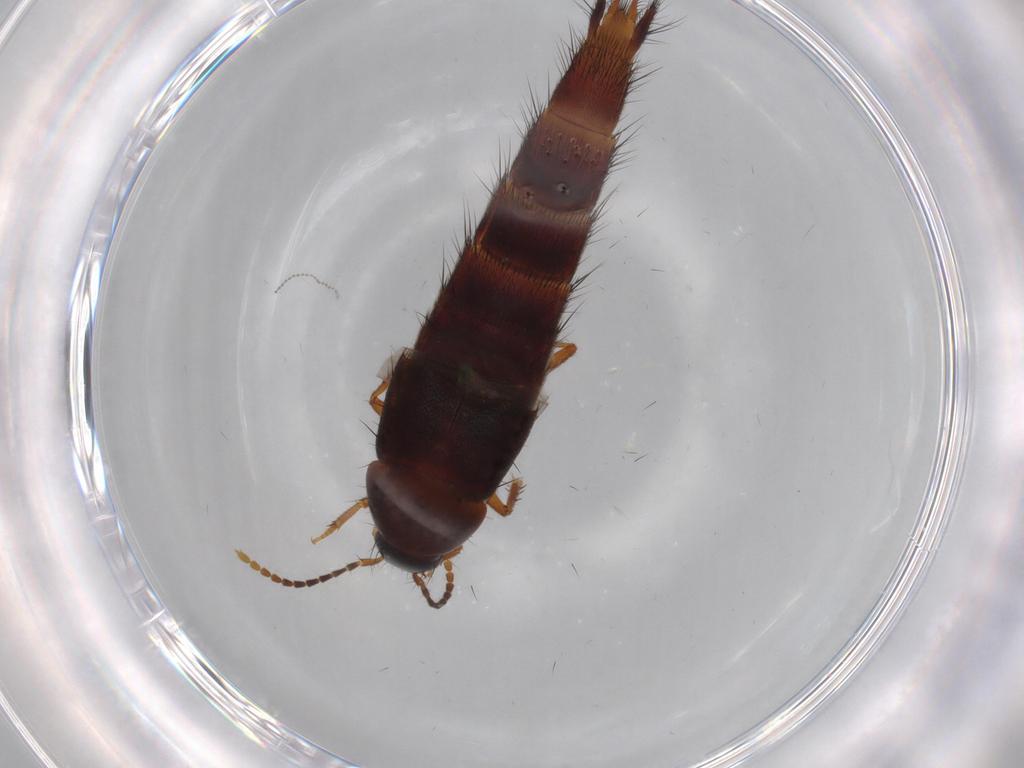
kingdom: Animalia
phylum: Arthropoda
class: Insecta
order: Coleoptera
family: Staphylinidae
